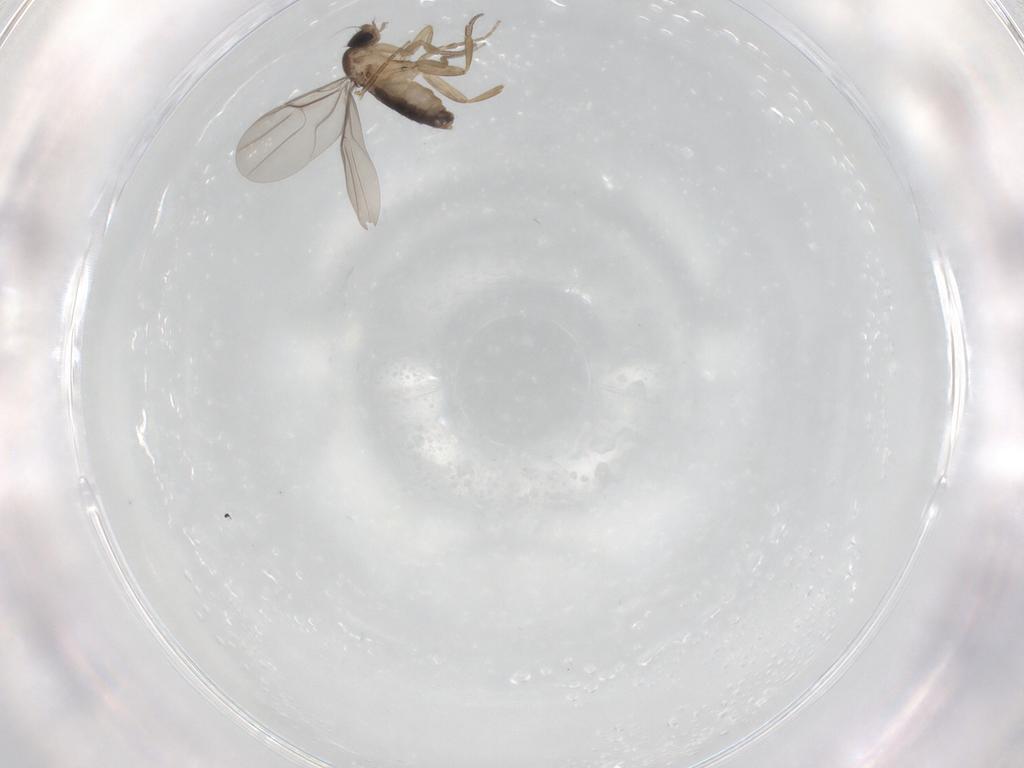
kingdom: Animalia
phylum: Arthropoda
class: Insecta
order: Diptera
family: Phoridae
